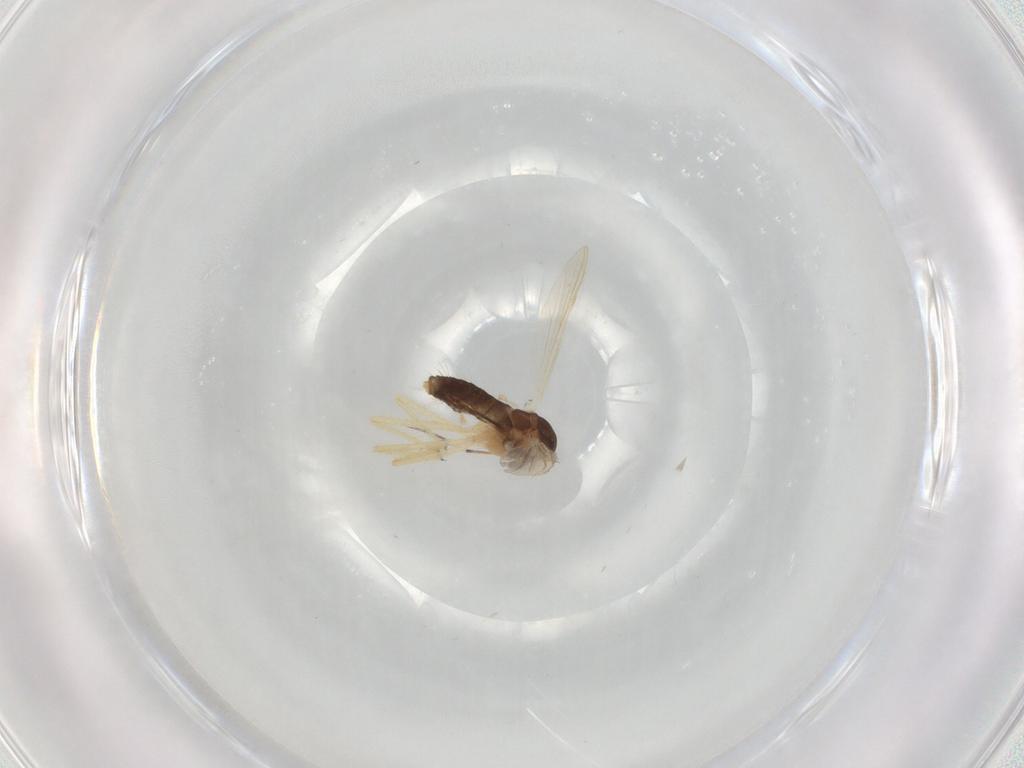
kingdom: Animalia
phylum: Arthropoda
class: Insecta
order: Diptera
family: Chironomidae
